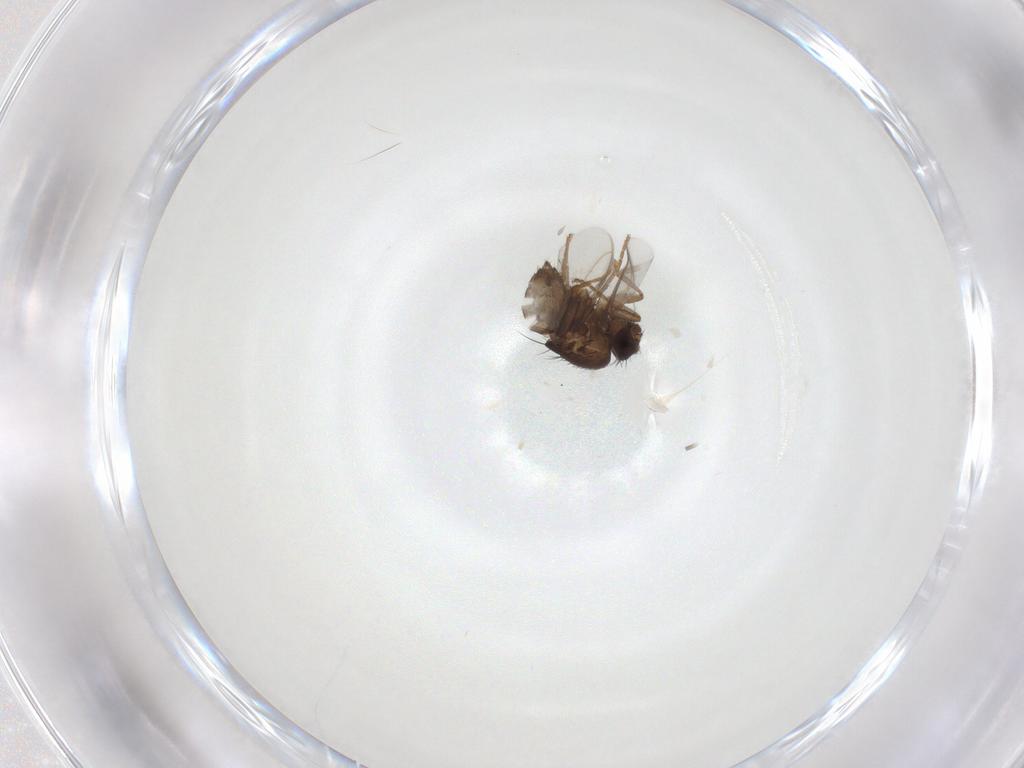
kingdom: Animalia
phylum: Arthropoda
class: Insecta
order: Diptera
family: Sphaeroceridae
